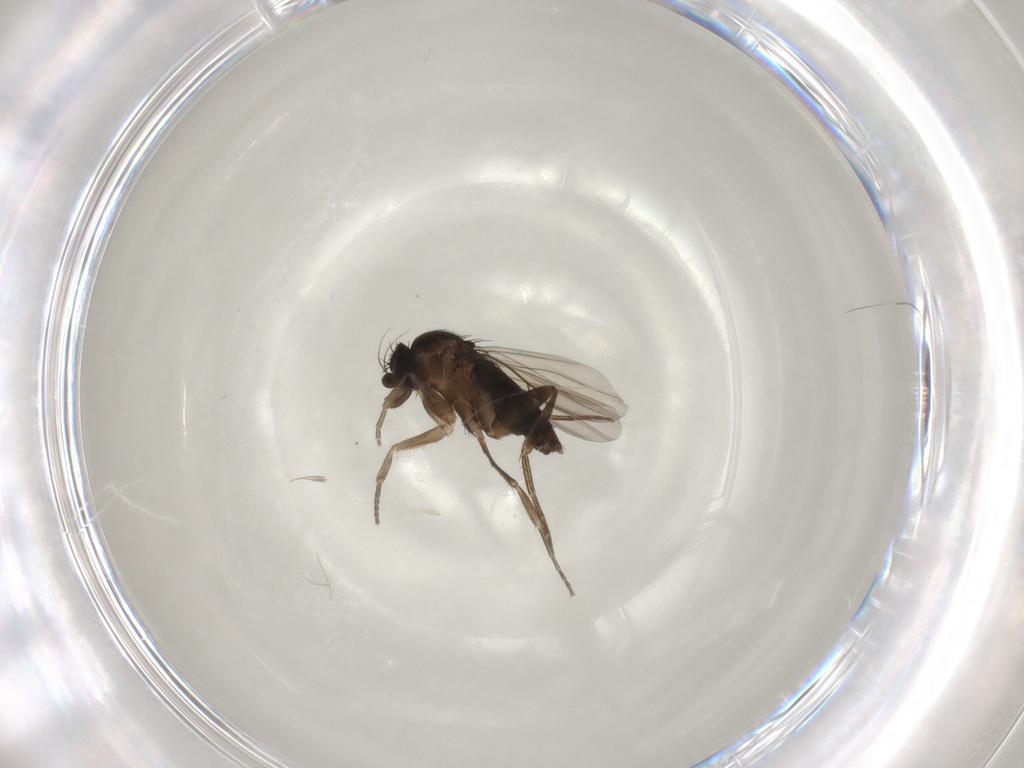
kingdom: Animalia
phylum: Arthropoda
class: Insecta
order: Diptera
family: Phoridae
